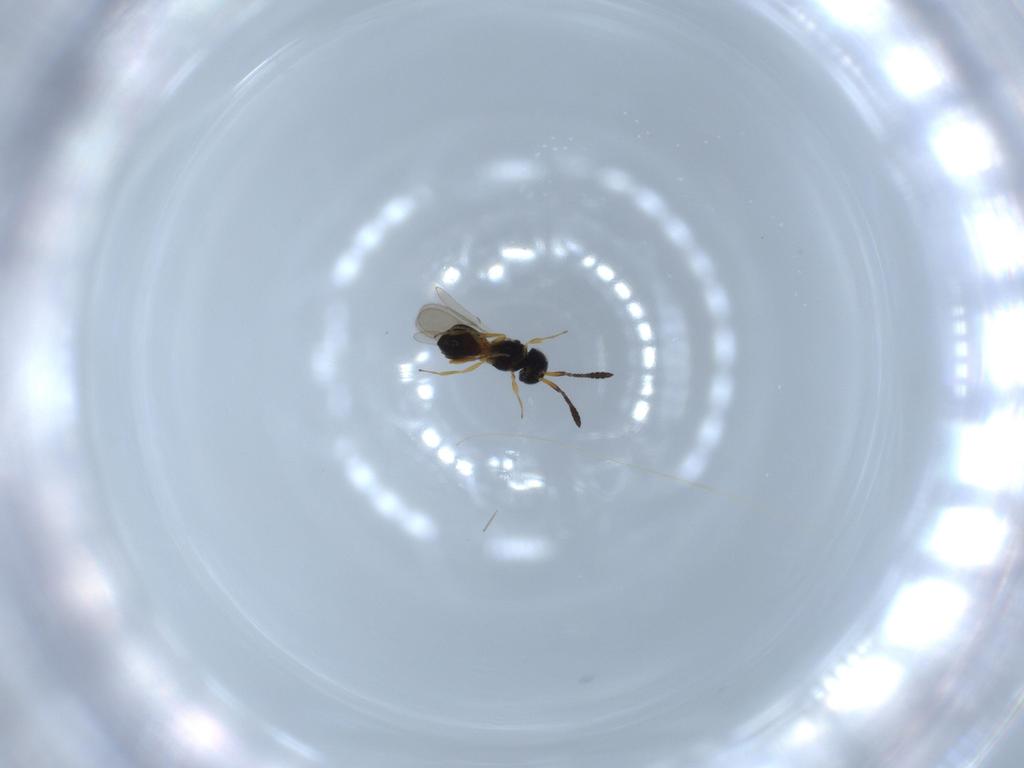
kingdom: Animalia
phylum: Arthropoda
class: Insecta
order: Hymenoptera
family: Scelionidae
